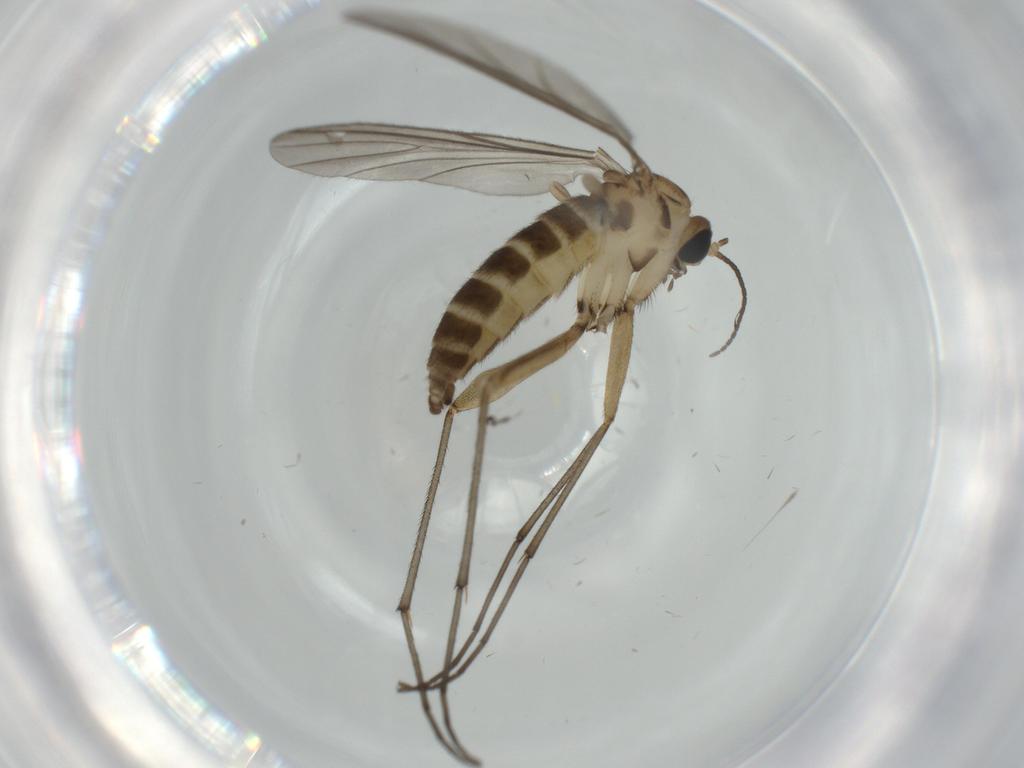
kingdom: Animalia
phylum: Arthropoda
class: Insecta
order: Diptera
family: Sciaridae
